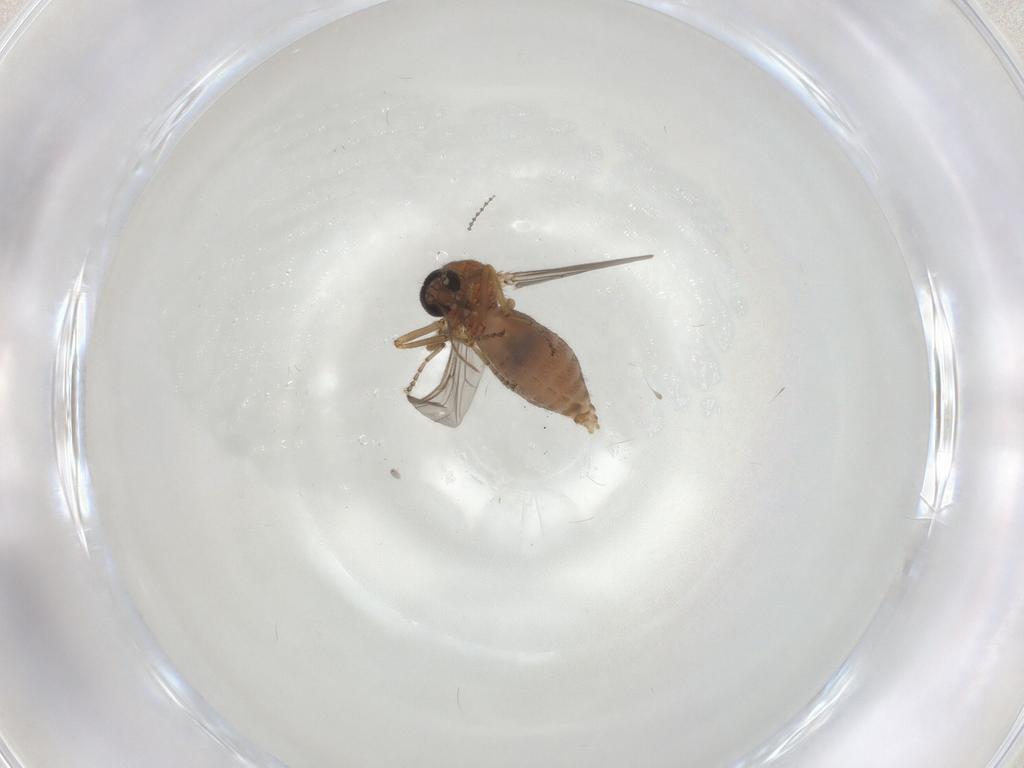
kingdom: Animalia
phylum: Arthropoda
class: Insecta
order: Diptera
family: Ceratopogonidae
